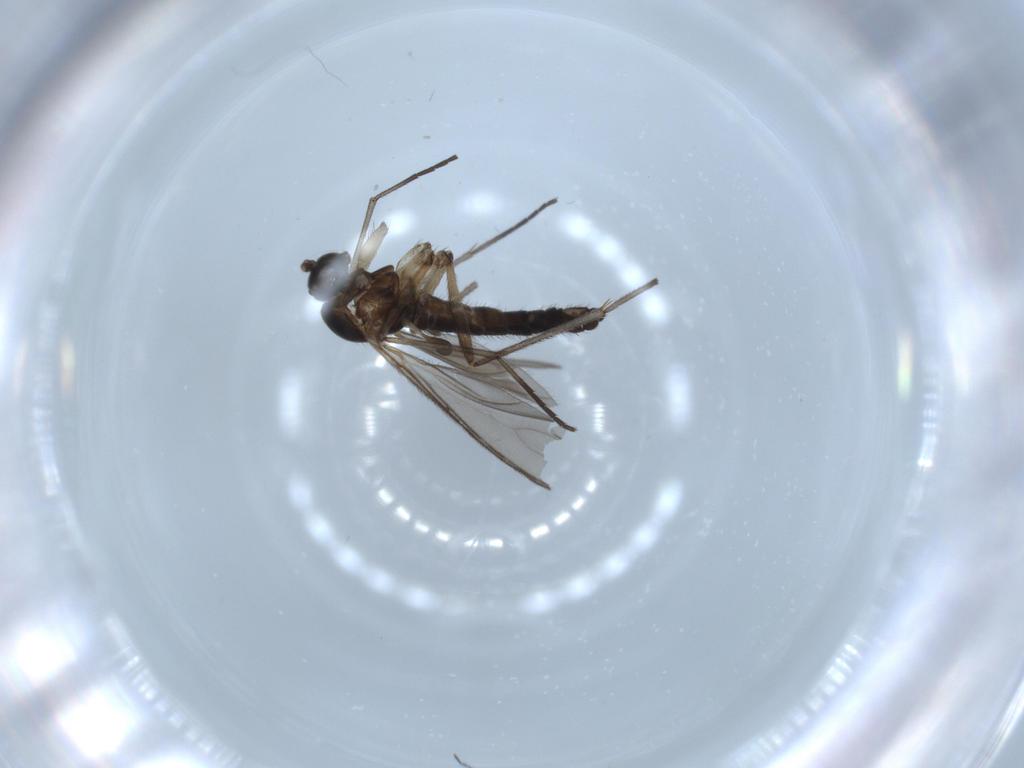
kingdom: Animalia
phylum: Arthropoda
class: Insecta
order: Diptera
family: Sciaridae
